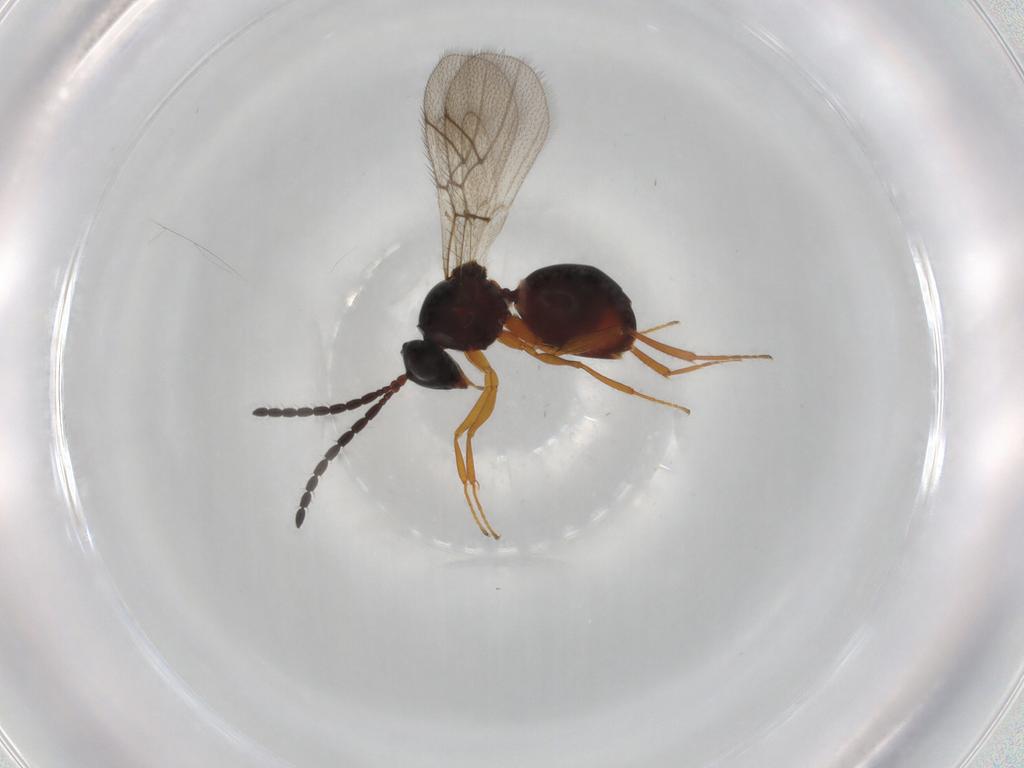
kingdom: Animalia
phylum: Arthropoda
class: Insecta
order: Hymenoptera
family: Figitidae
